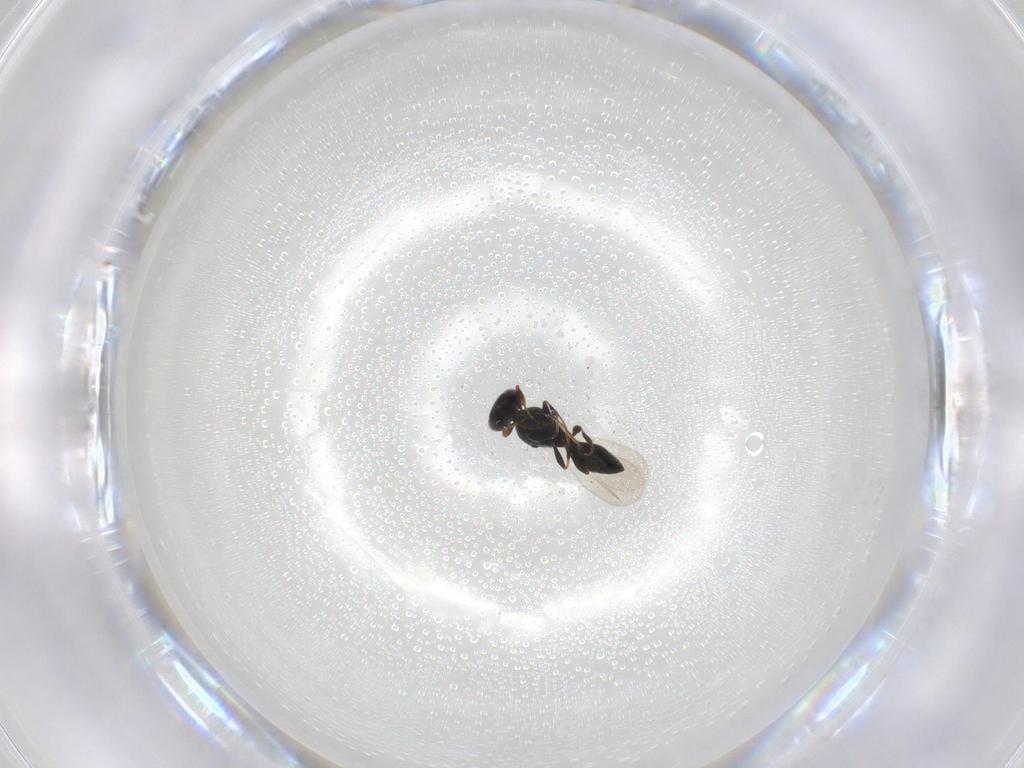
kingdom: Animalia
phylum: Arthropoda
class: Insecta
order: Hymenoptera
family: Platygastridae
